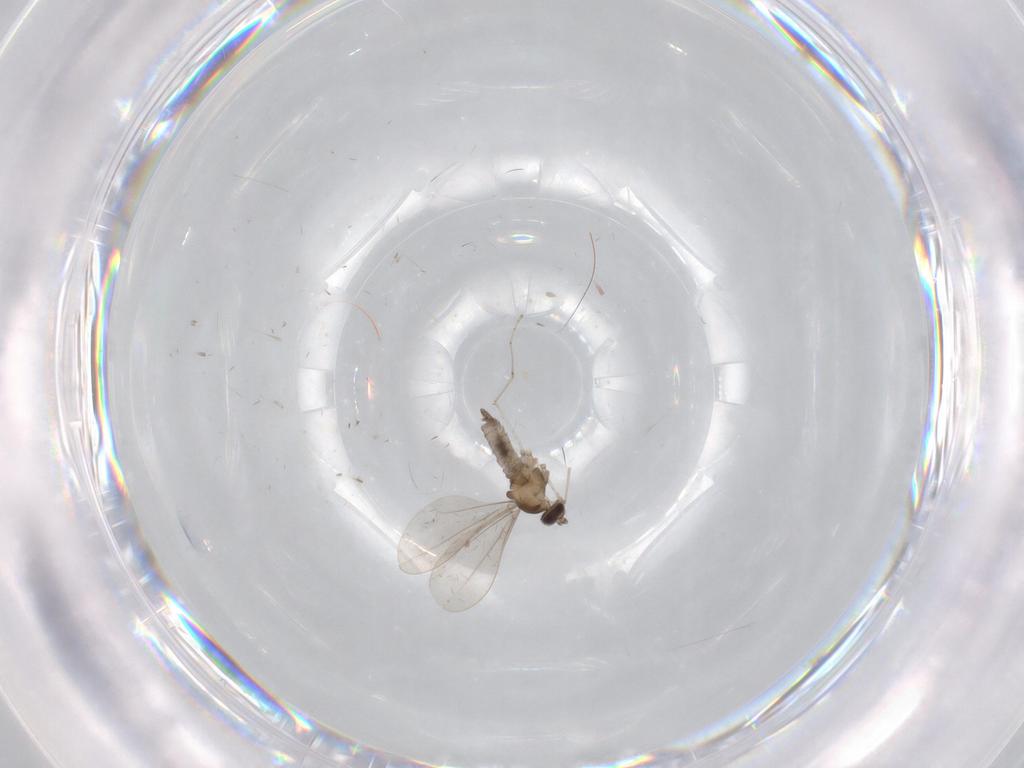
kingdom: Animalia
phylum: Arthropoda
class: Insecta
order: Diptera
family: Cecidomyiidae
